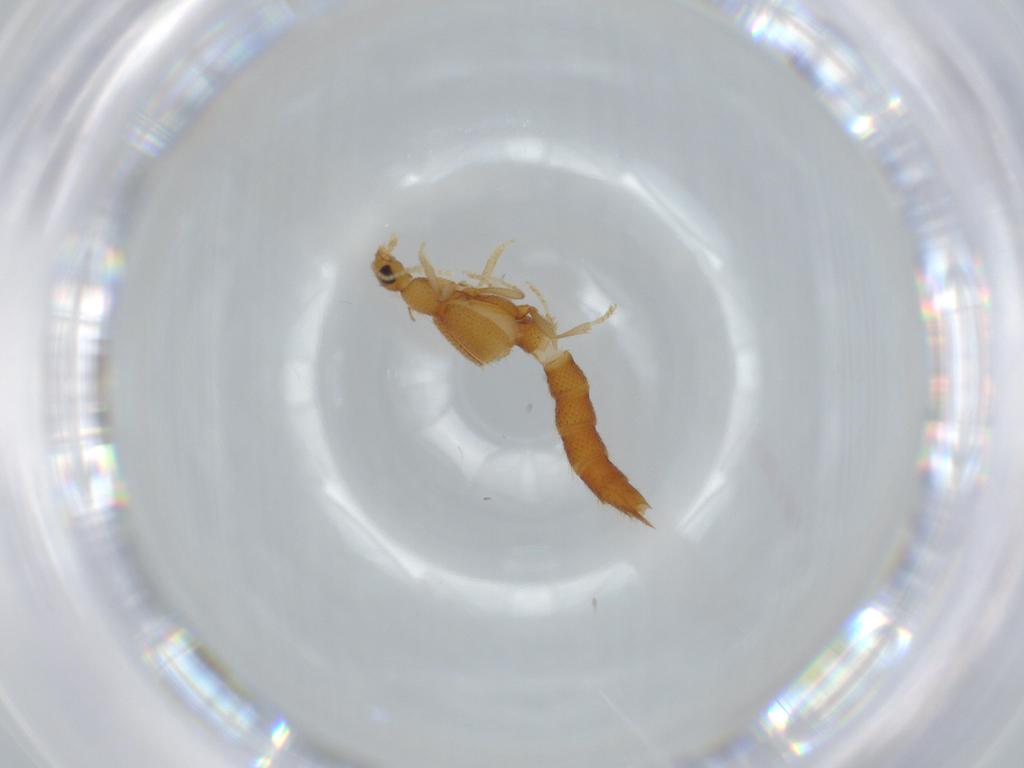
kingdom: Animalia
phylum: Arthropoda
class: Insecta
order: Coleoptera
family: Staphylinidae
